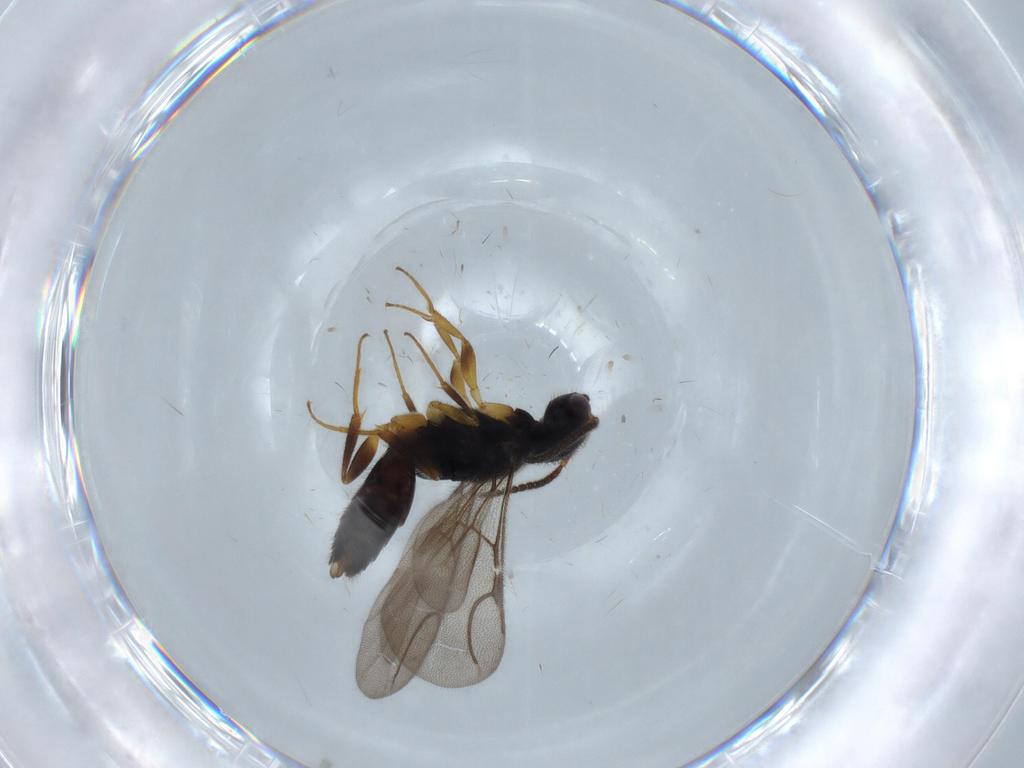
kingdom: Animalia
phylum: Arthropoda
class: Insecta
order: Hymenoptera
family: Bethylidae
